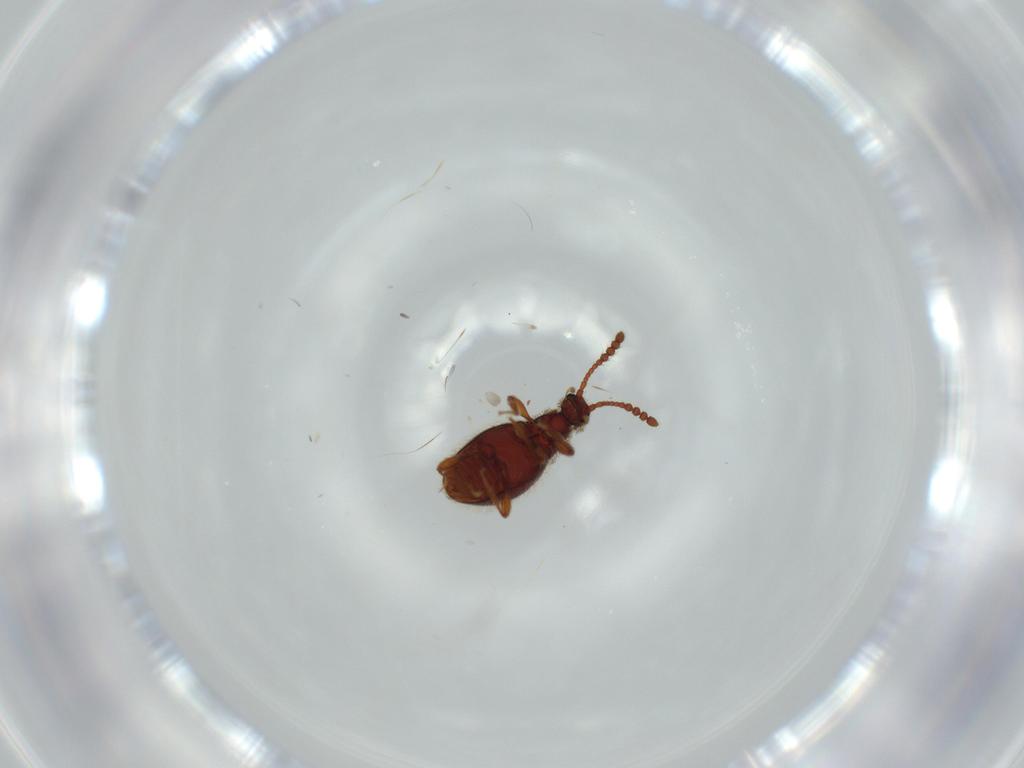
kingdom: Animalia
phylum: Arthropoda
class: Insecta
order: Coleoptera
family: Staphylinidae
